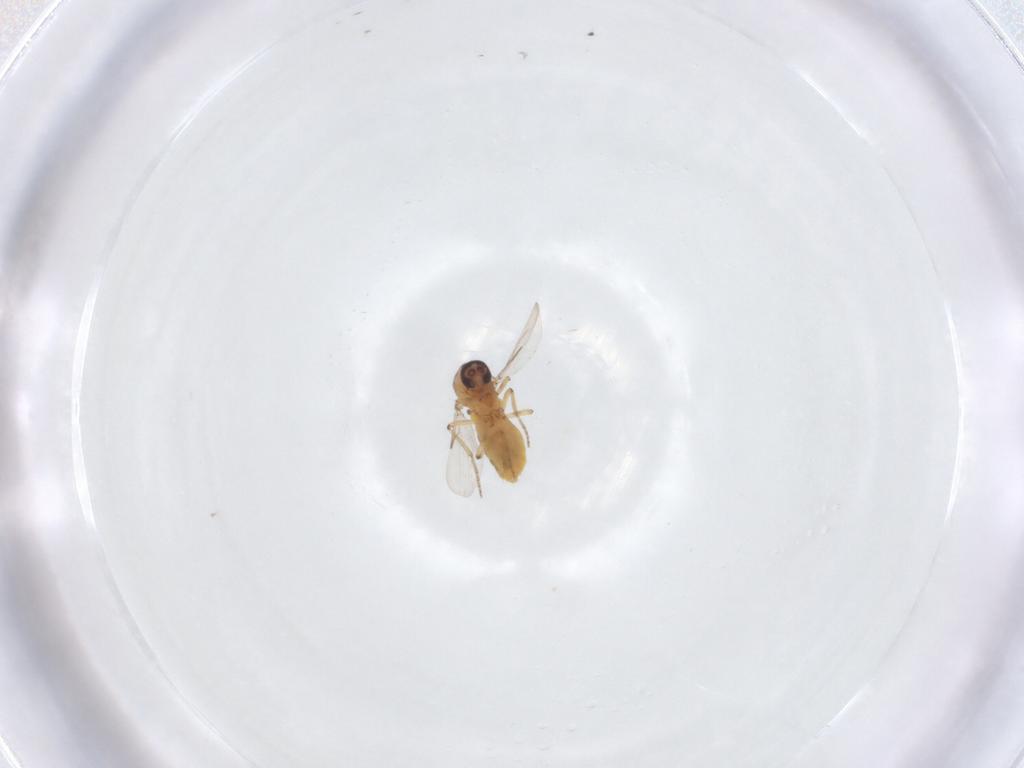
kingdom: Animalia
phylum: Arthropoda
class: Insecta
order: Diptera
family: Ceratopogonidae
